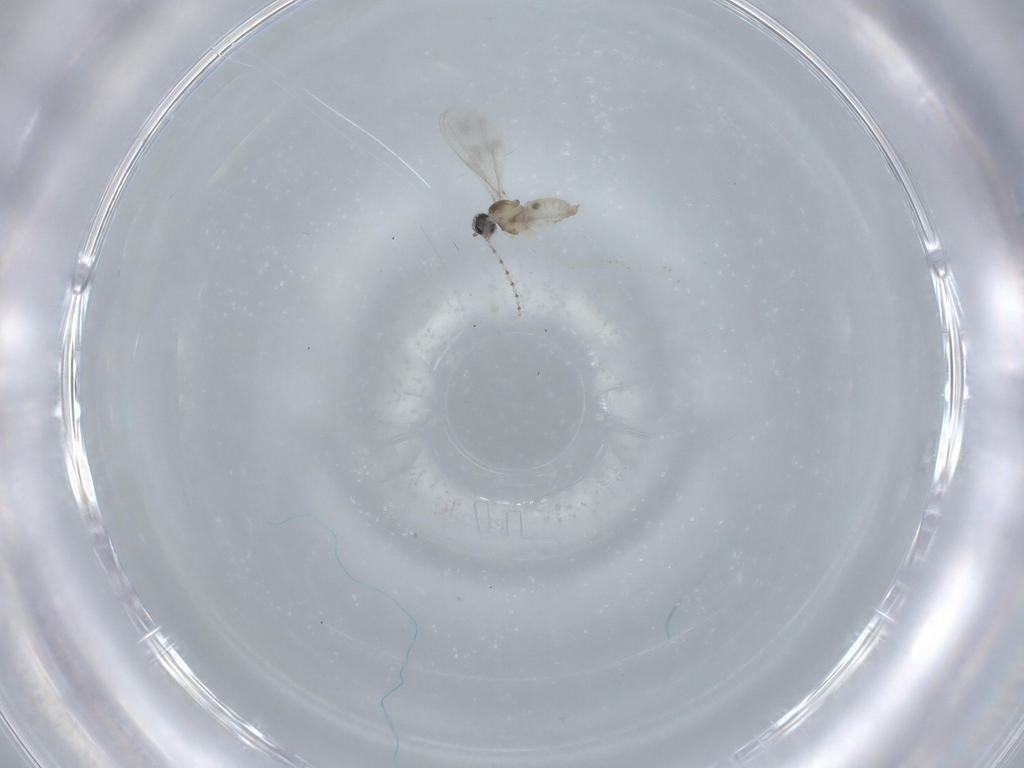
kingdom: Animalia
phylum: Arthropoda
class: Insecta
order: Diptera
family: Cecidomyiidae
